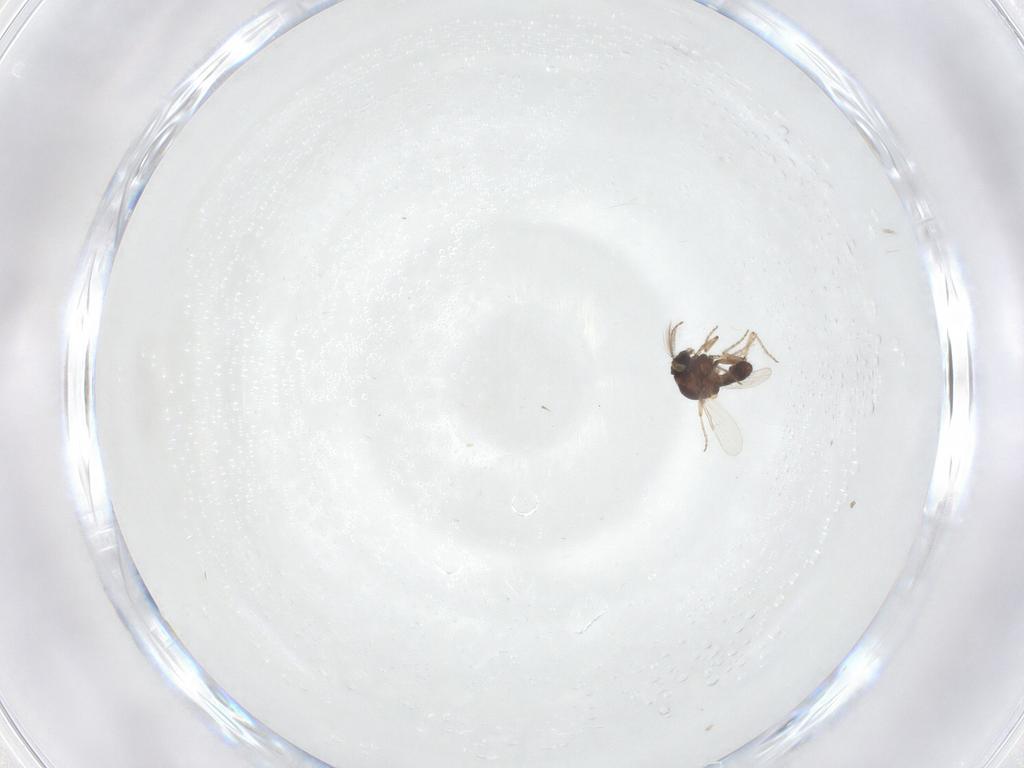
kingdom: Animalia
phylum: Arthropoda
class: Insecta
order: Diptera
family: Ceratopogonidae
